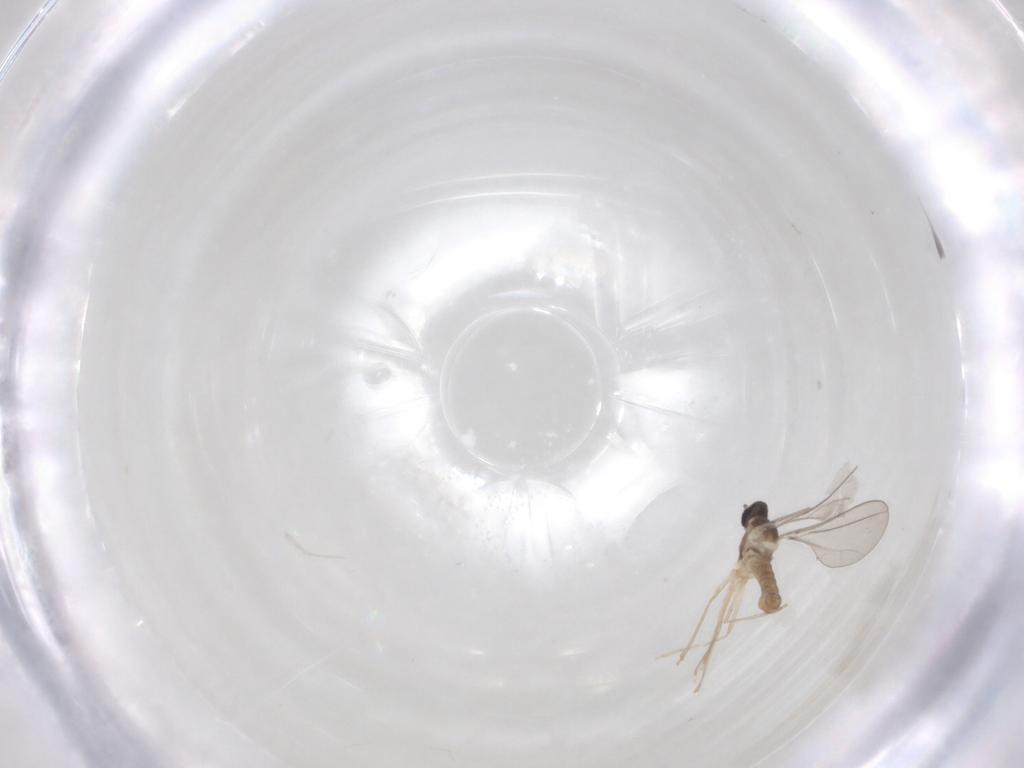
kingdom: Animalia
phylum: Arthropoda
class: Insecta
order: Diptera
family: Cecidomyiidae
